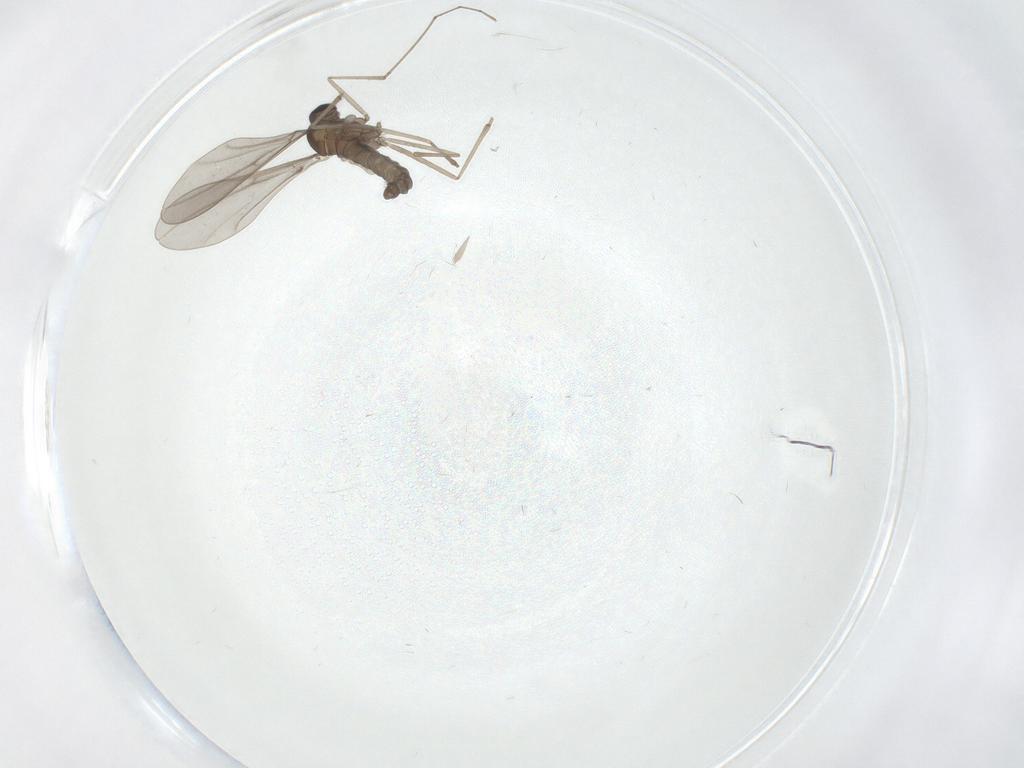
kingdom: Animalia
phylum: Arthropoda
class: Insecta
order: Diptera
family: Cecidomyiidae
